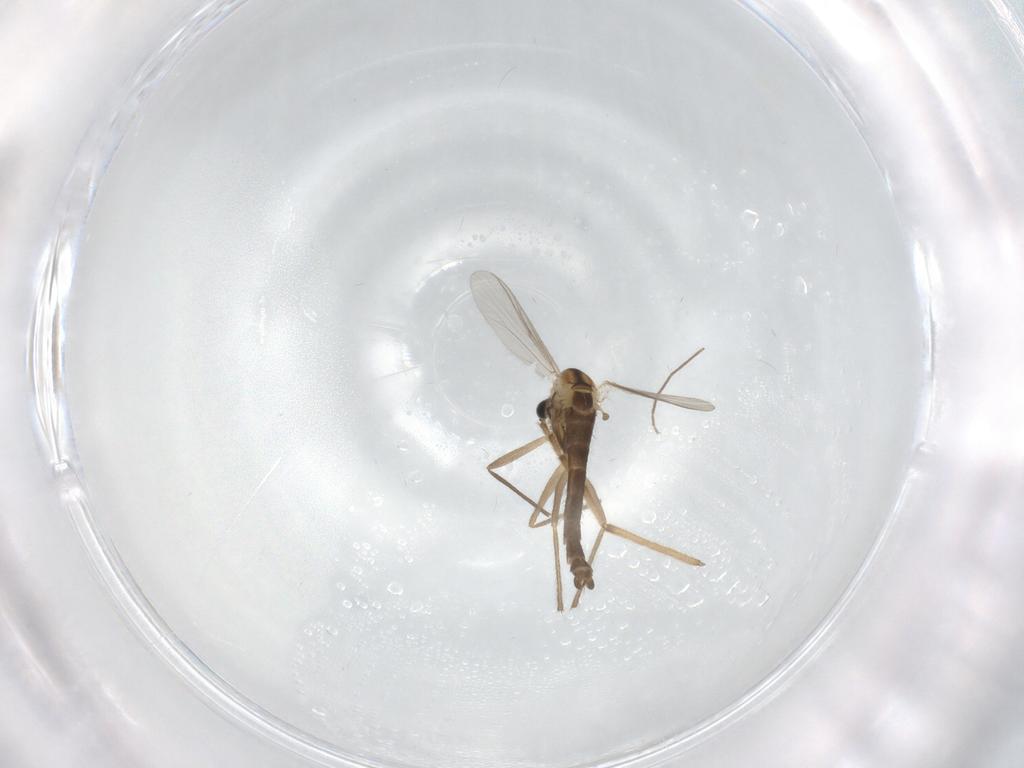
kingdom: Animalia
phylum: Arthropoda
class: Insecta
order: Diptera
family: Chironomidae
